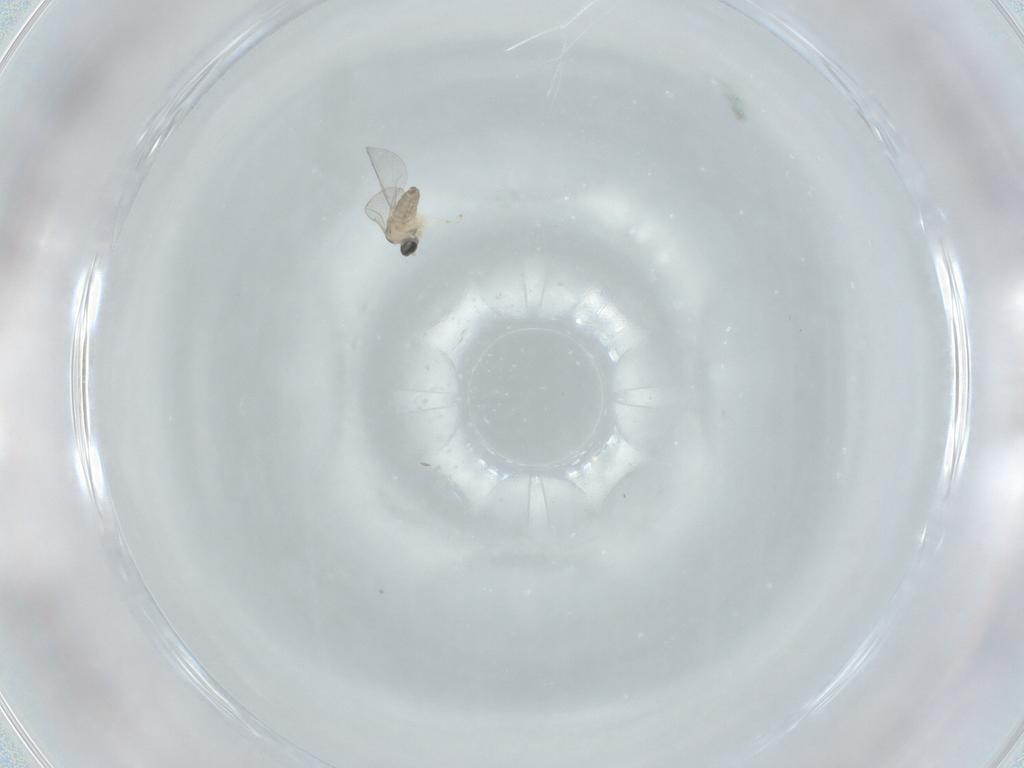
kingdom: Animalia
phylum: Arthropoda
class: Insecta
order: Diptera
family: Cecidomyiidae
